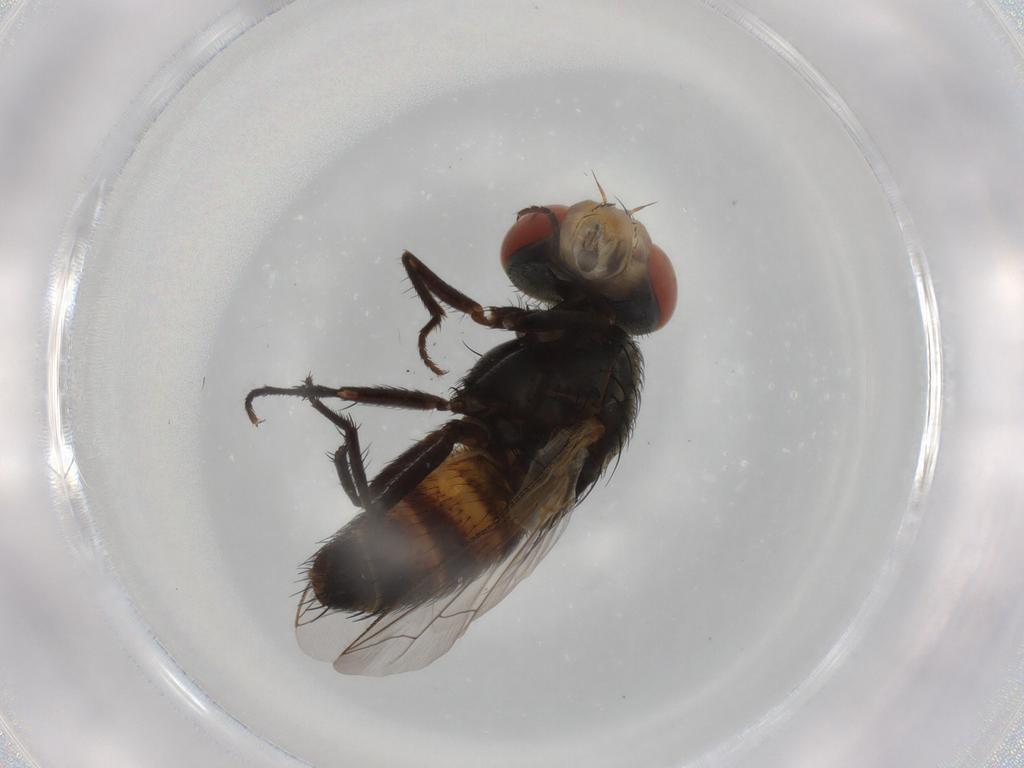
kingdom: Animalia
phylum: Arthropoda
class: Insecta
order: Diptera
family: Sarcophagidae
